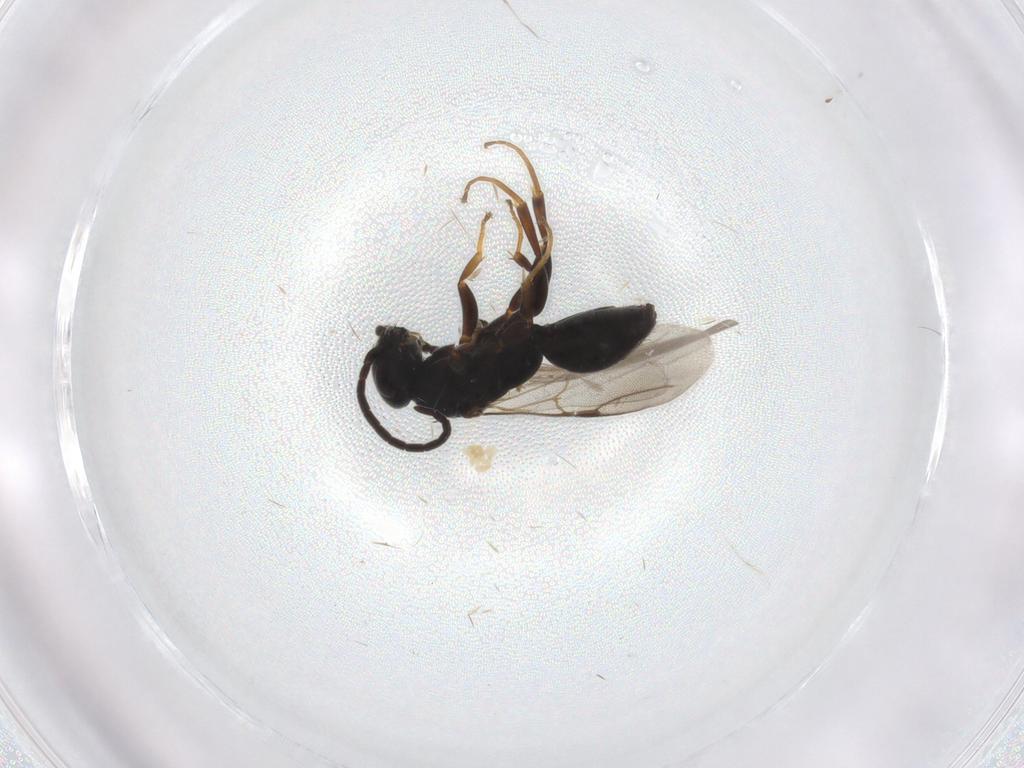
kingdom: Animalia
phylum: Arthropoda
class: Insecta
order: Hymenoptera
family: Bethylidae
